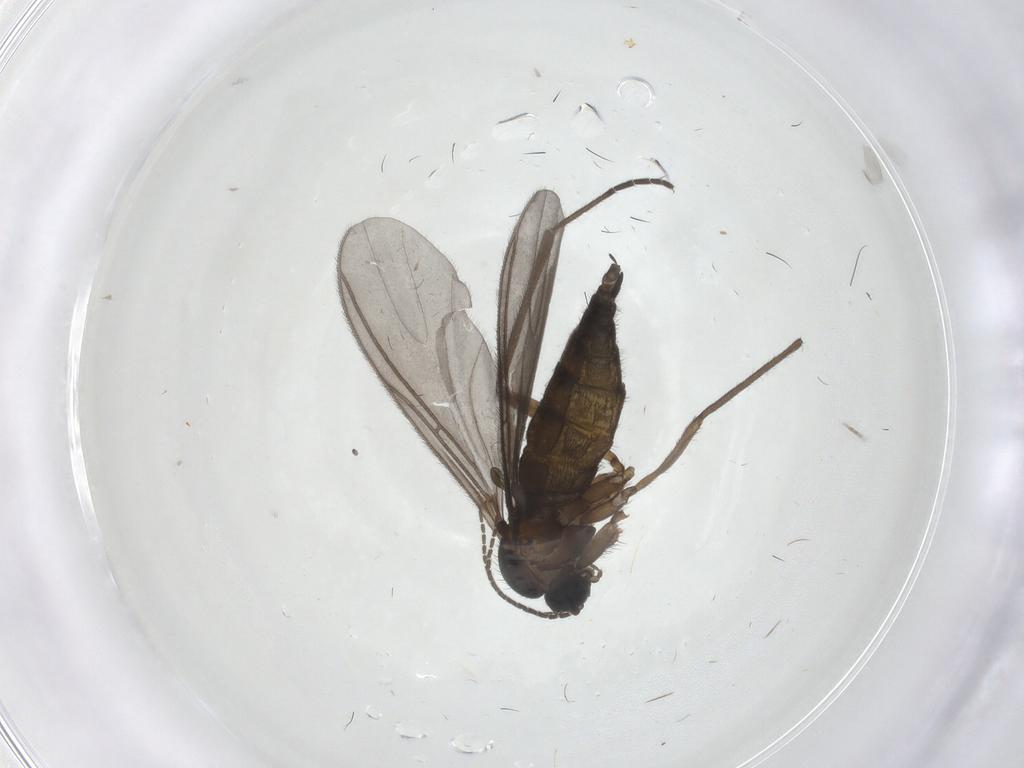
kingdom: Animalia
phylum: Arthropoda
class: Insecta
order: Diptera
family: Cecidomyiidae
